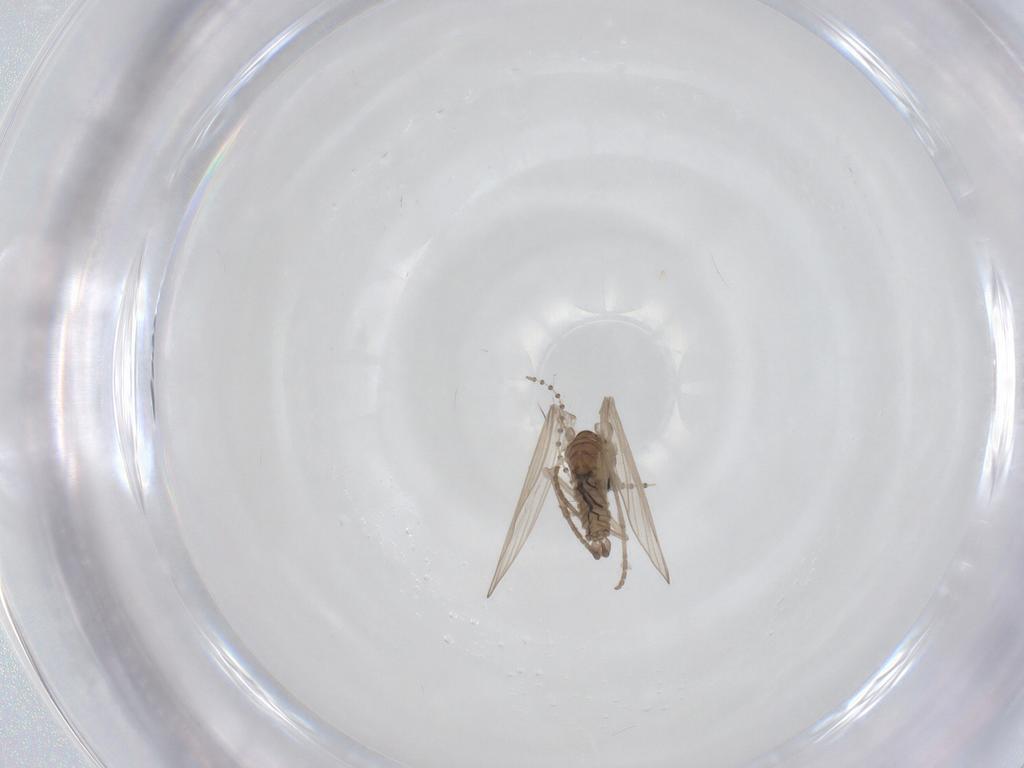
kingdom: Animalia
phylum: Arthropoda
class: Insecta
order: Diptera
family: Psychodidae
